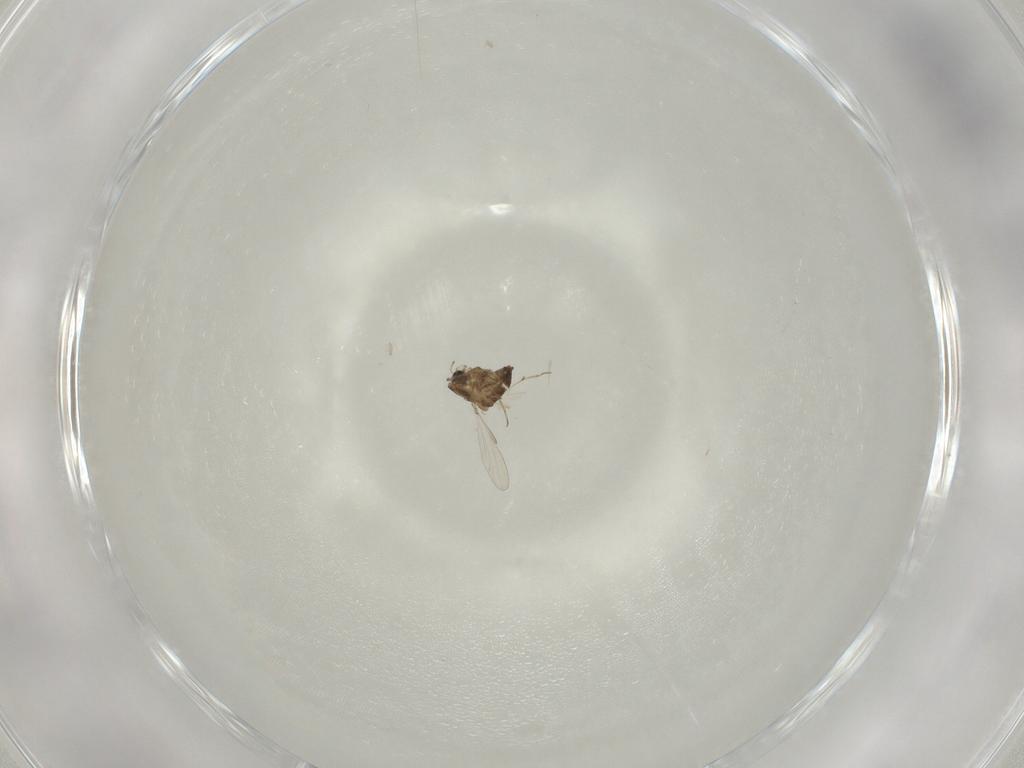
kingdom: Animalia
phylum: Arthropoda
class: Insecta
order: Diptera
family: Chironomidae
